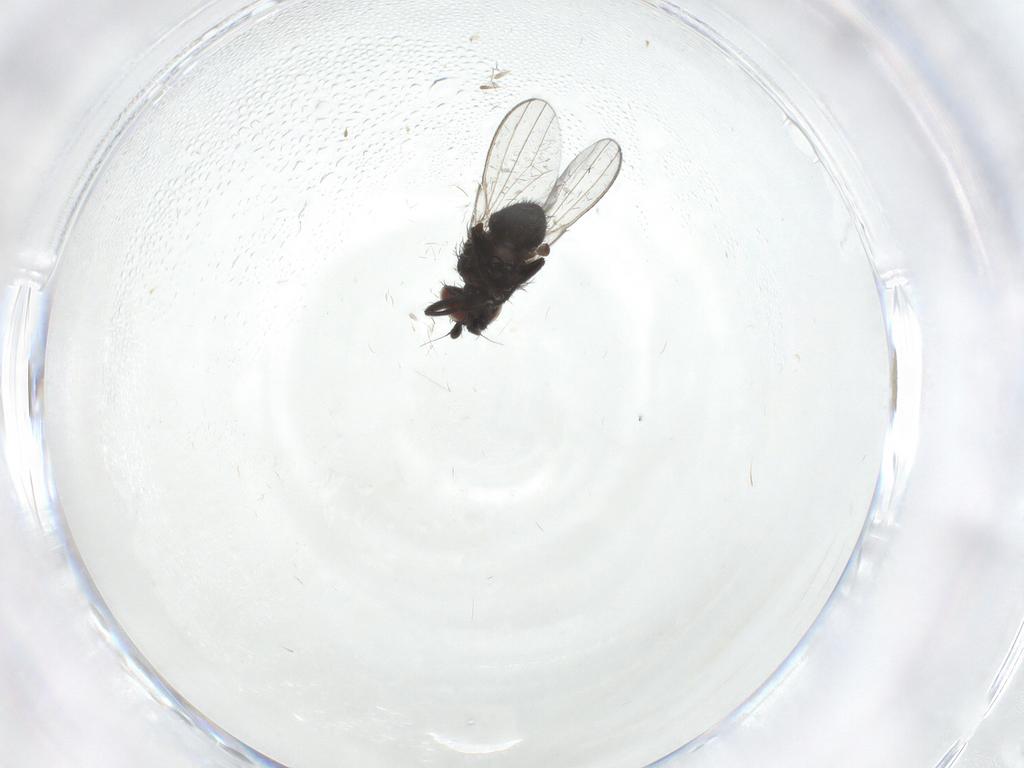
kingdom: Animalia
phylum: Arthropoda
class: Insecta
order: Diptera
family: Milichiidae
